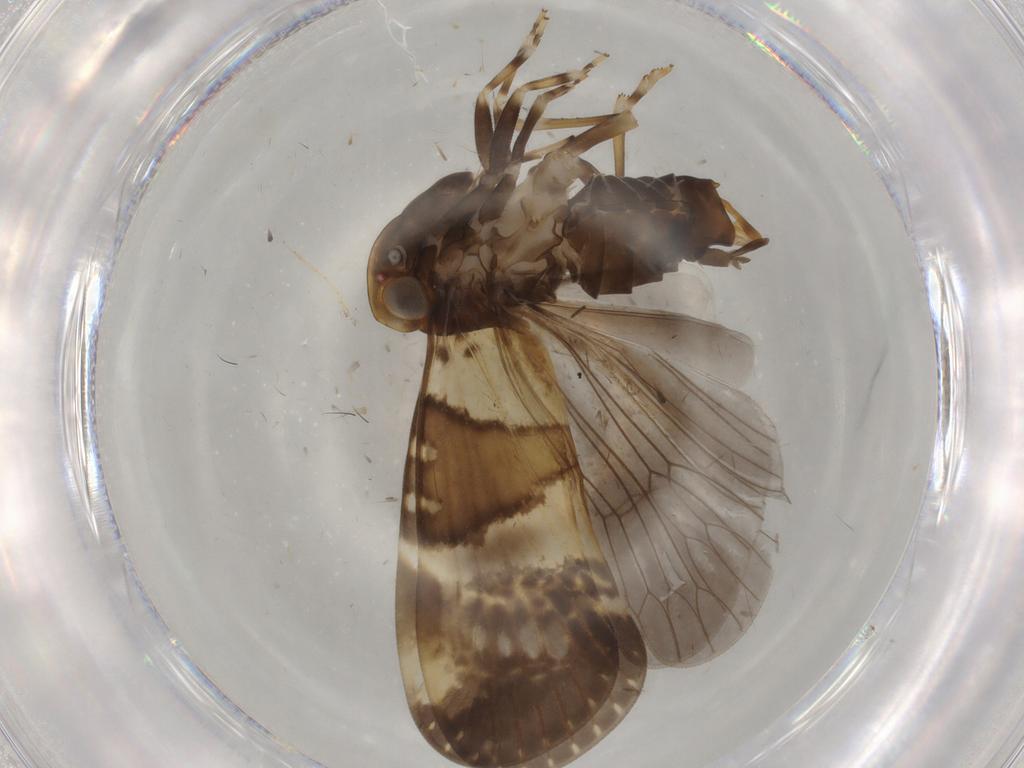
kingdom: Animalia
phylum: Arthropoda
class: Insecta
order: Hemiptera
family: Cixiidae
